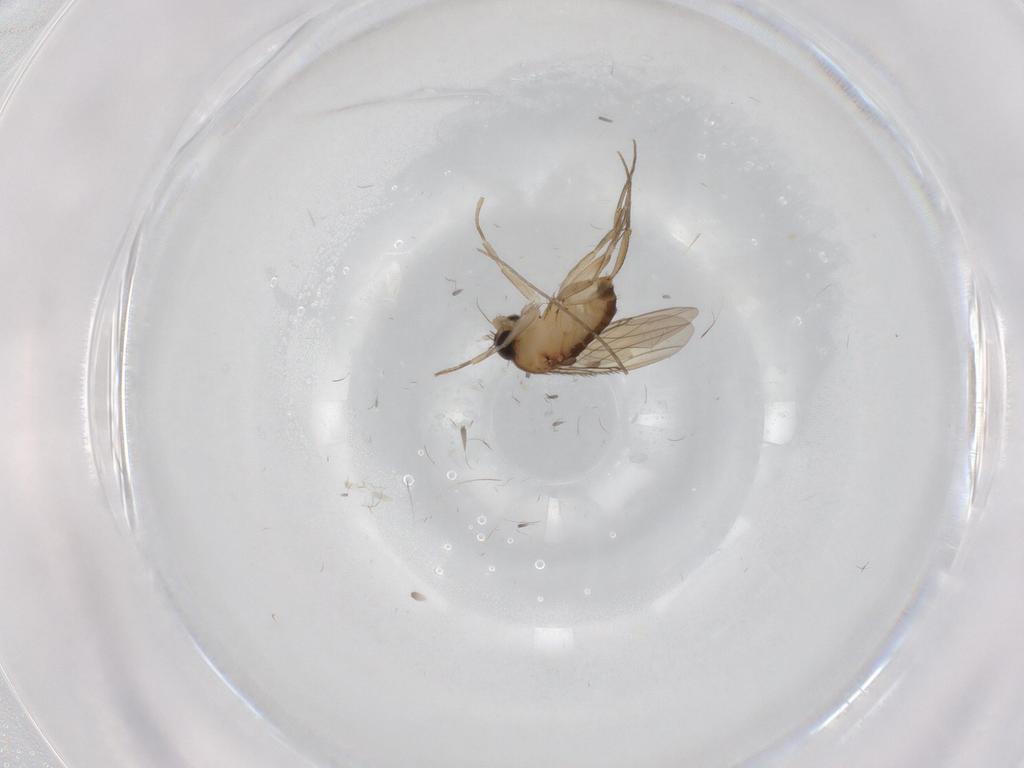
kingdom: Animalia
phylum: Arthropoda
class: Insecta
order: Diptera
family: Phoridae
